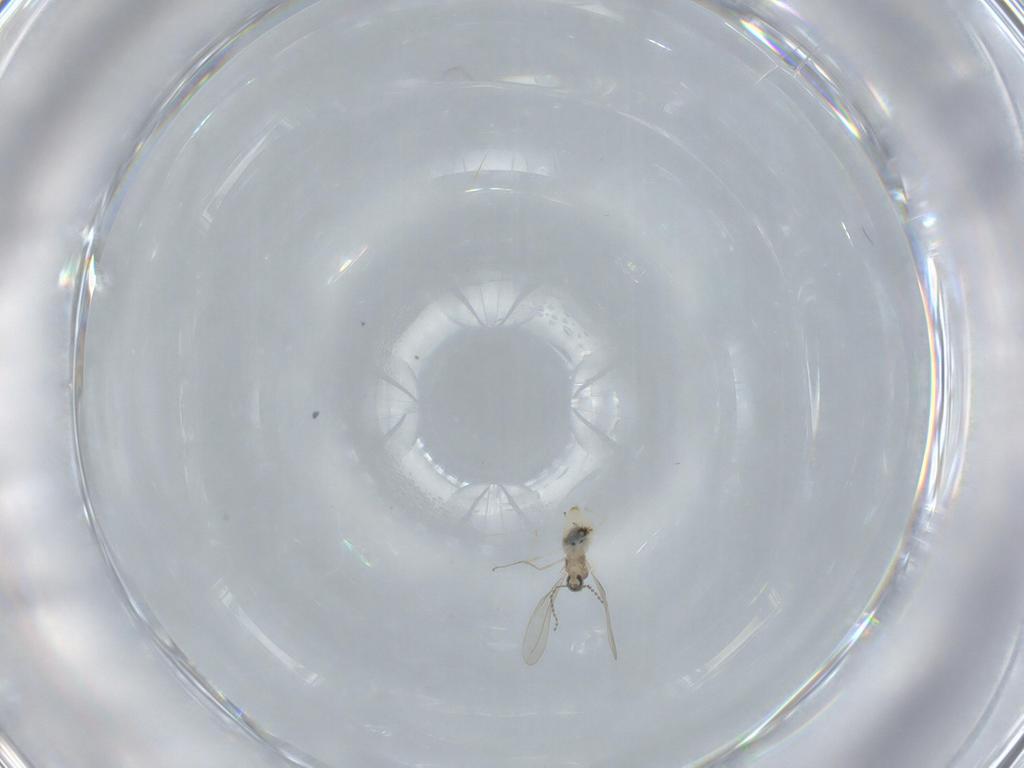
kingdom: Animalia
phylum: Arthropoda
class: Insecta
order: Diptera
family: Cecidomyiidae
